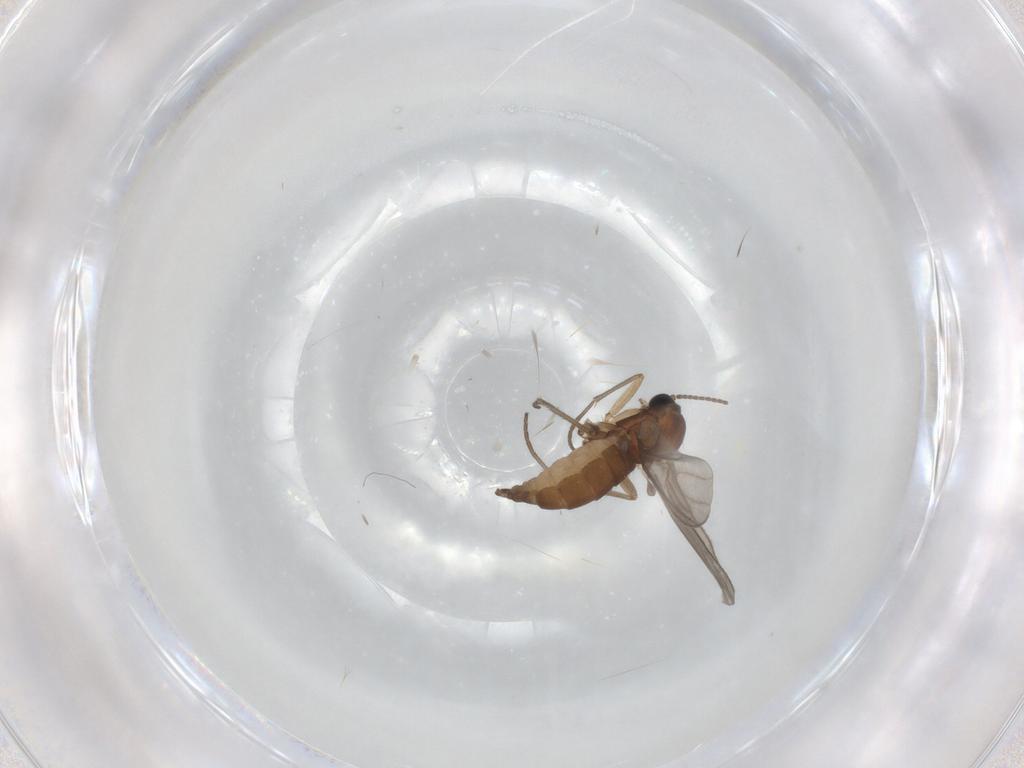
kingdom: Animalia
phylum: Arthropoda
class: Insecta
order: Diptera
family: Sciaridae
